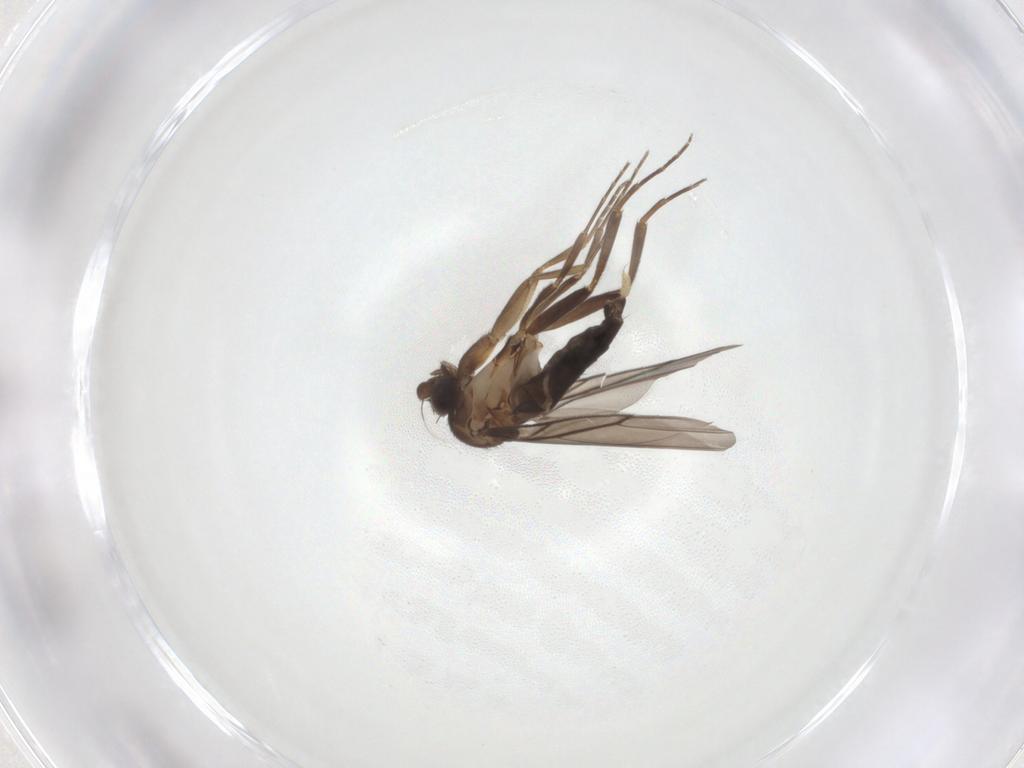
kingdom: Animalia
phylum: Arthropoda
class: Insecta
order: Diptera
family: Phoridae
